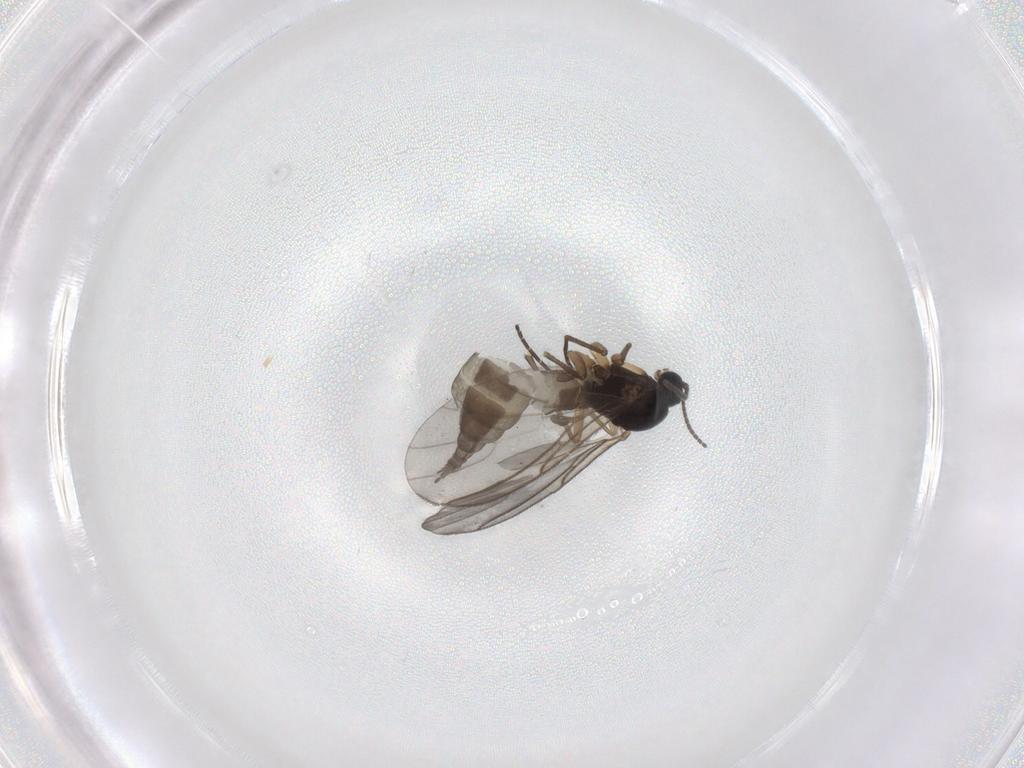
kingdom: Animalia
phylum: Arthropoda
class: Insecta
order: Diptera
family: Sciaridae
